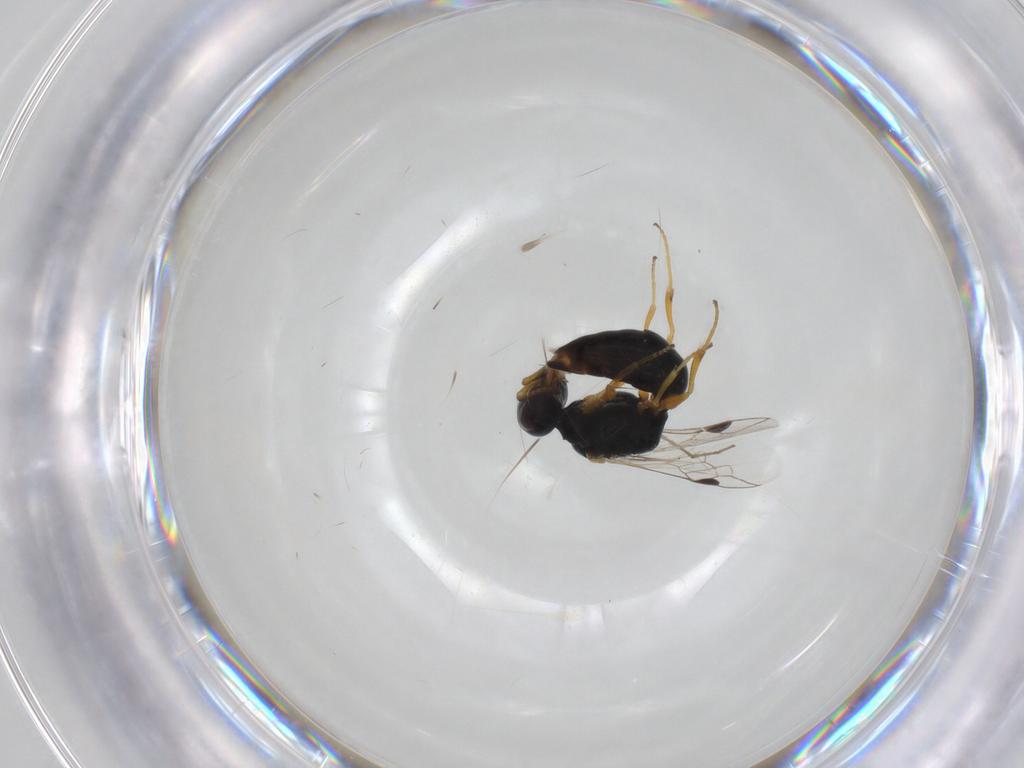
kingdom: Animalia
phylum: Arthropoda
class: Insecta
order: Hymenoptera
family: Pemphredonidae
